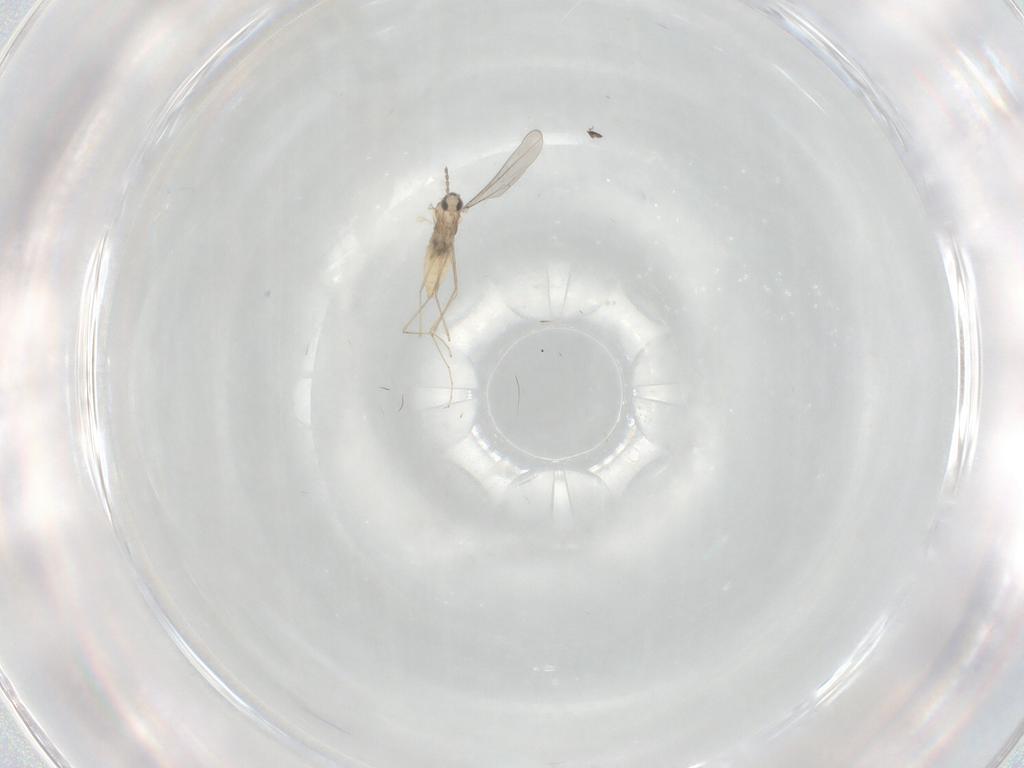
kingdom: Animalia
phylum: Arthropoda
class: Insecta
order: Diptera
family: Cecidomyiidae
